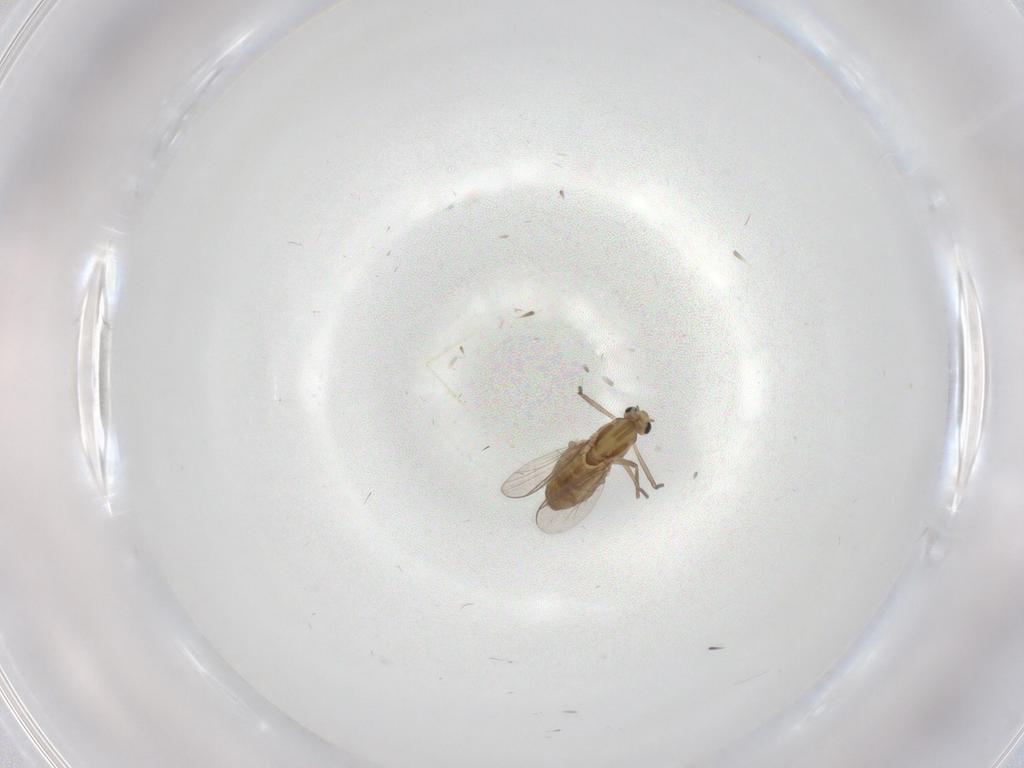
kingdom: Animalia
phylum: Arthropoda
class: Insecta
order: Diptera
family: Chironomidae
